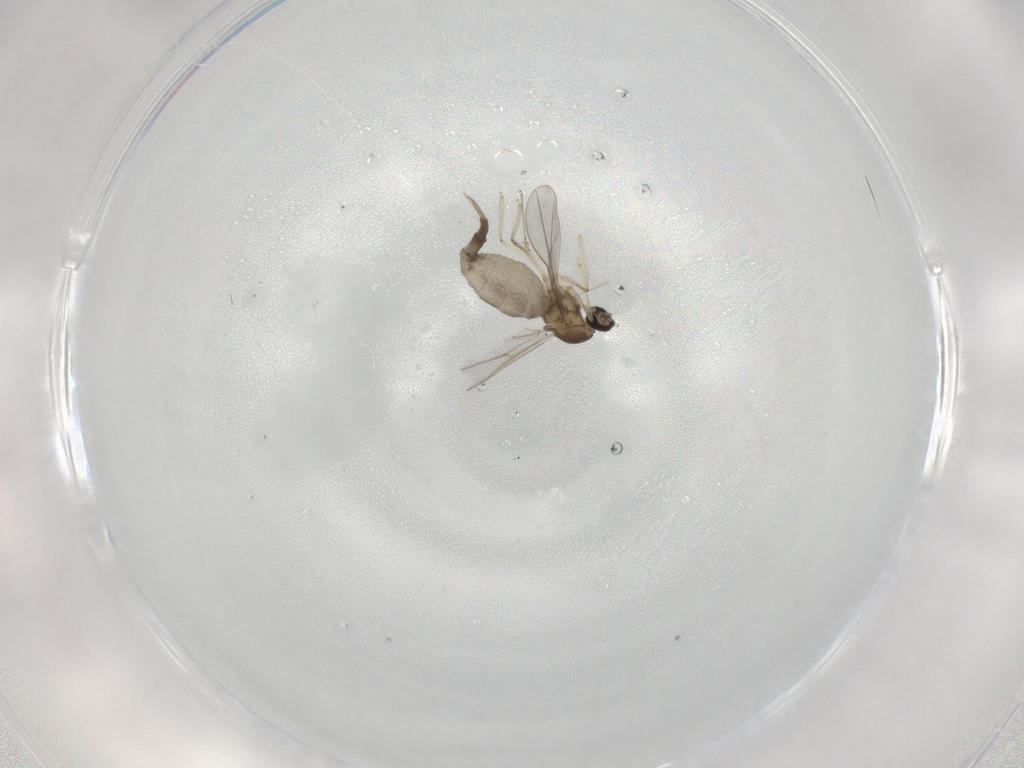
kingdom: Animalia
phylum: Arthropoda
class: Insecta
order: Diptera
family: Cecidomyiidae
